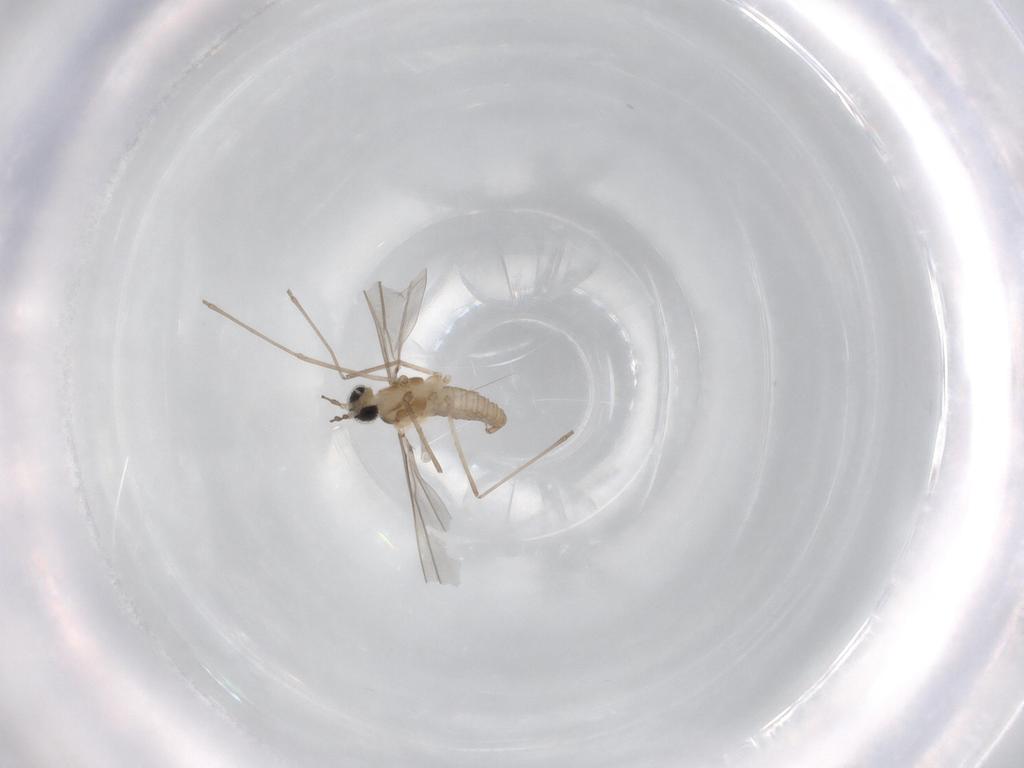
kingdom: Animalia
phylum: Arthropoda
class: Insecta
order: Diptera
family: Cecidomyiidae
